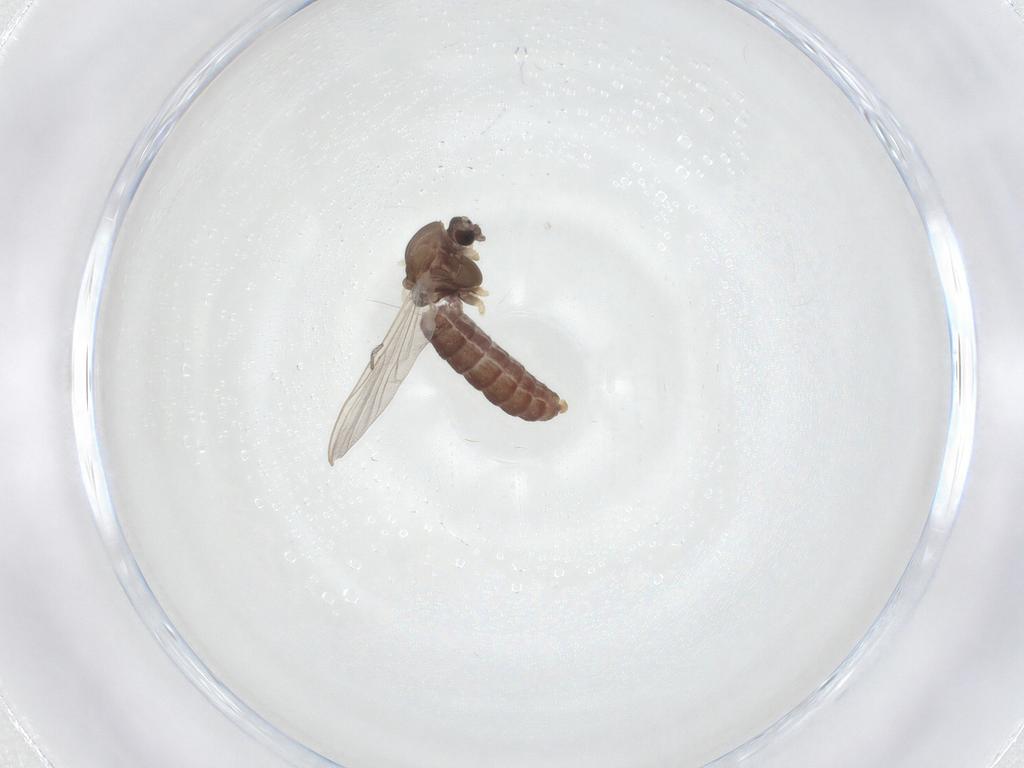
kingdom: Animalia
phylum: Arthropoda
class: Insecta
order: Diptera
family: Chironomidae
